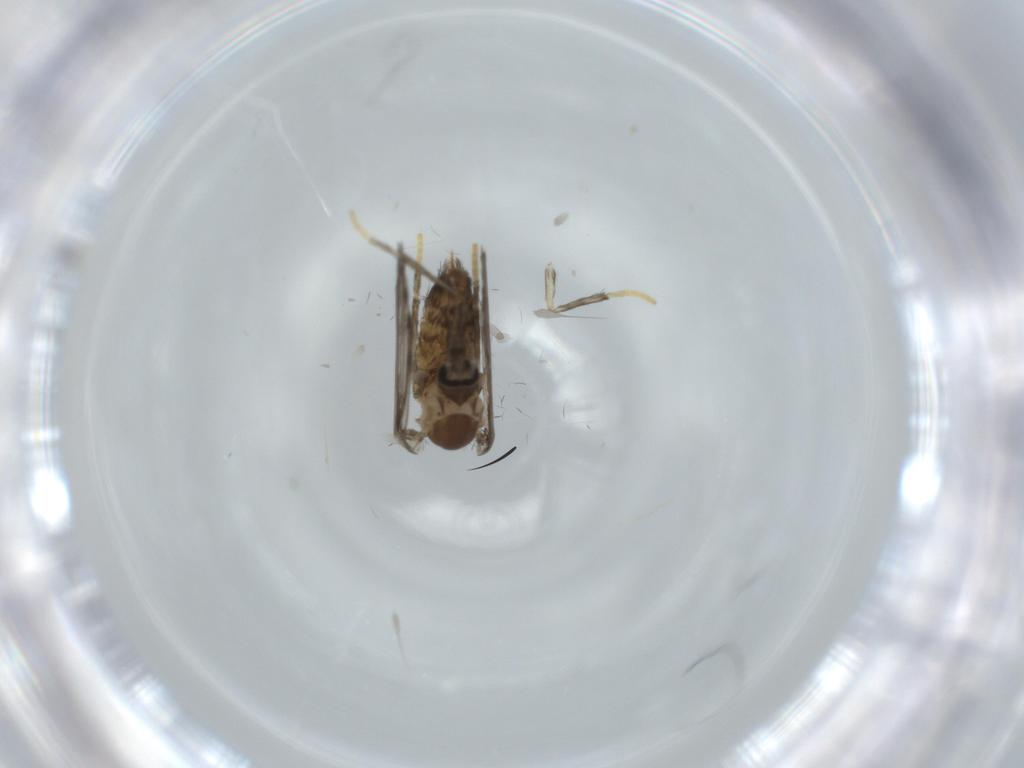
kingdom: Animalia
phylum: Arthropoda
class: Insecta
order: Diptera
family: Psychodidae
